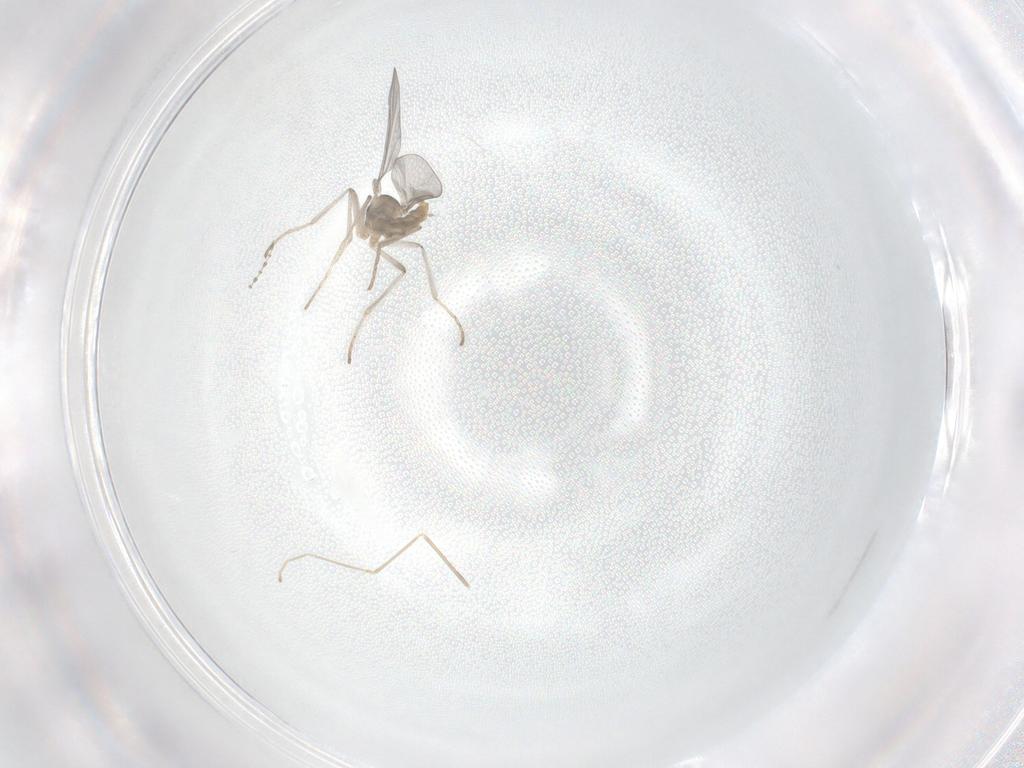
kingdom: Animalia
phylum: Arthropoda
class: Insecta
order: Diptera
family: Cecidomyiidae
